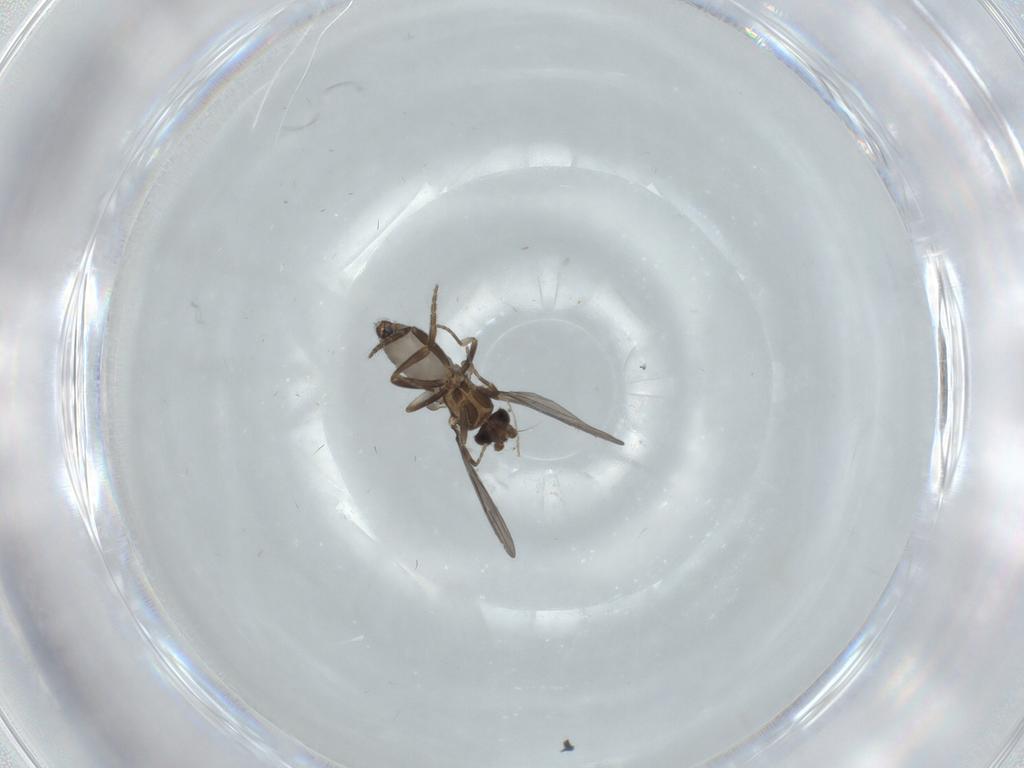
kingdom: Animalia
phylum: Arthropoda
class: Insecta
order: Diptera
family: Phoridae
